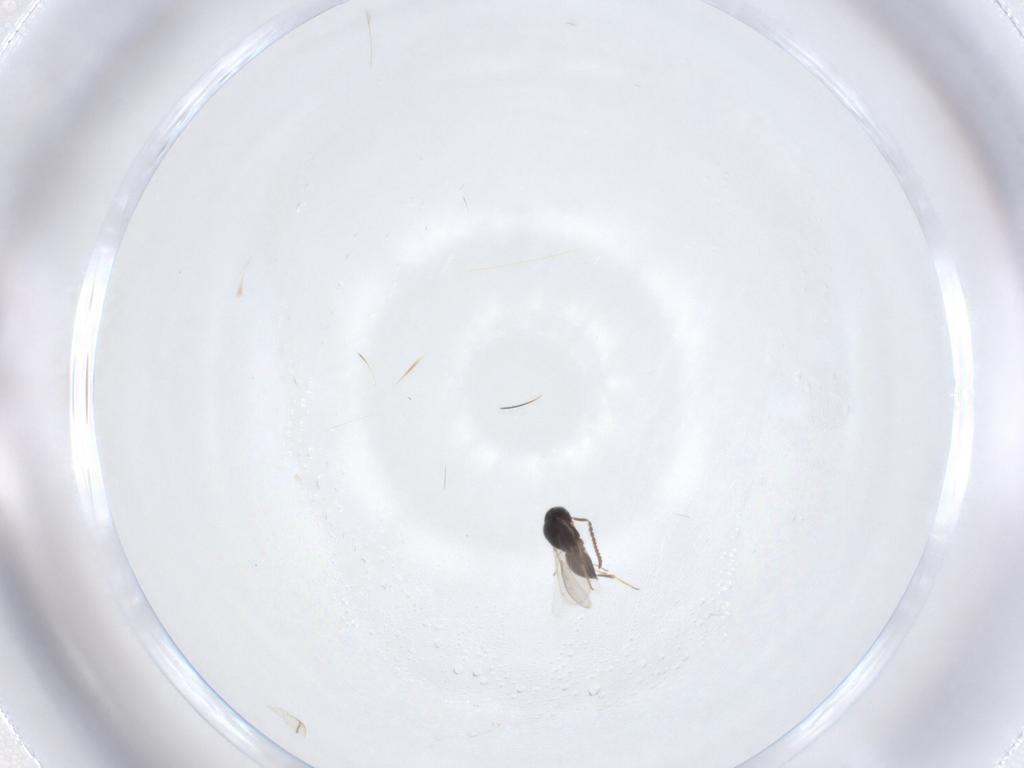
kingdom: Animalia
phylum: Arthropoda
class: Insecta
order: Hymenoptera
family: Scelionidae
